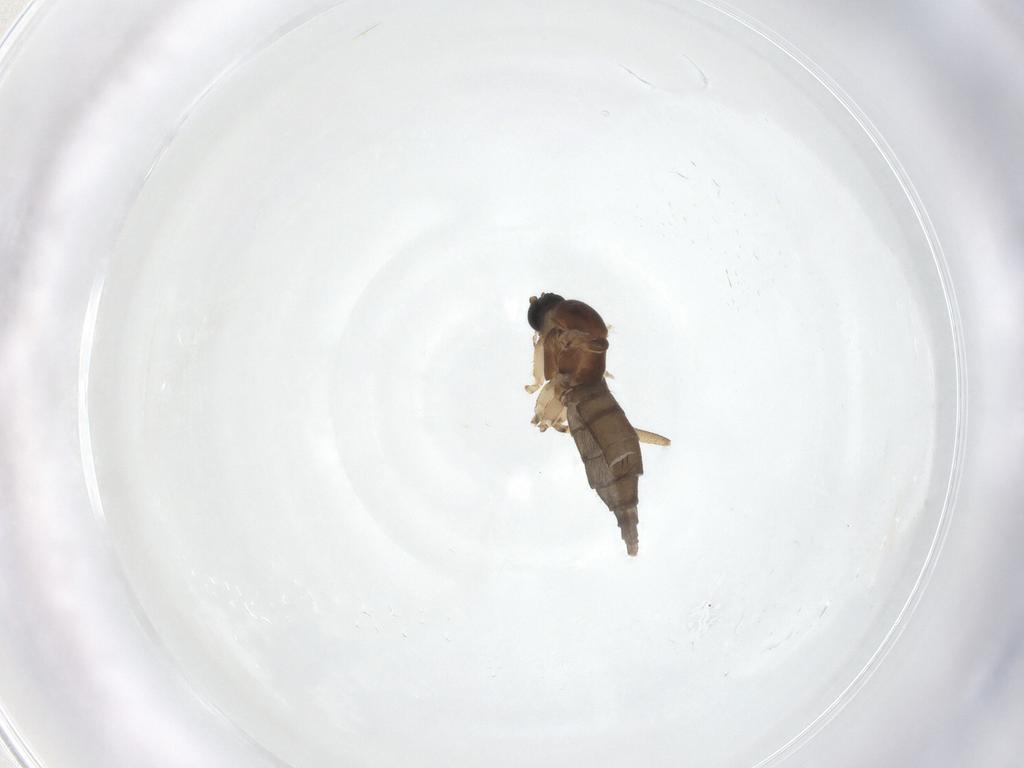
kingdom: Animalia
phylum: Arthropoda
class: Insecta
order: Diptera
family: Sciaridae
